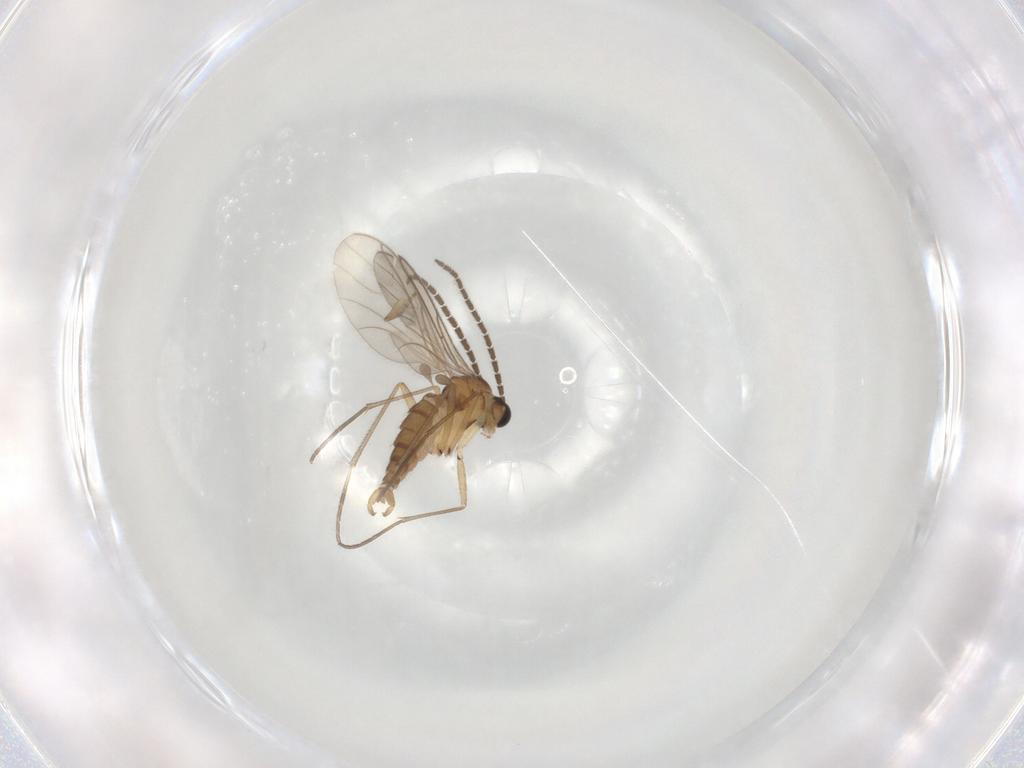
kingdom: Animalia
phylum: Arthropoda
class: Insecta
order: Diptera
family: Sciaridae
